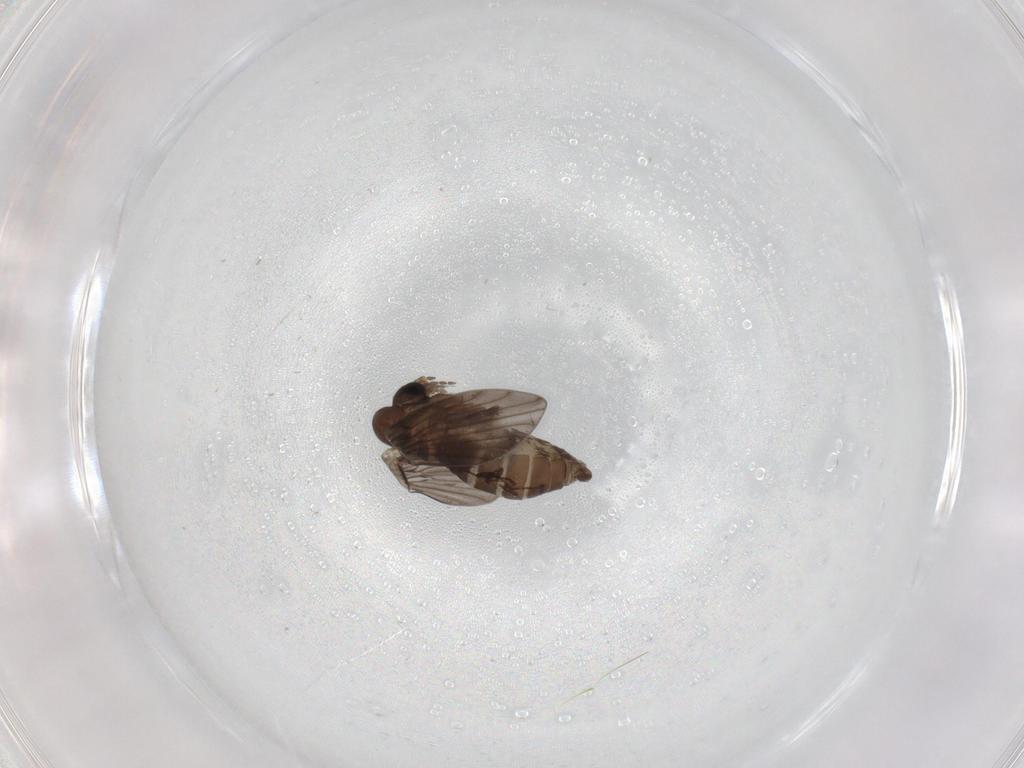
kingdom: Animalia
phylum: Arthropoda
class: Insecta
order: Diptera
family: Psychodidae
